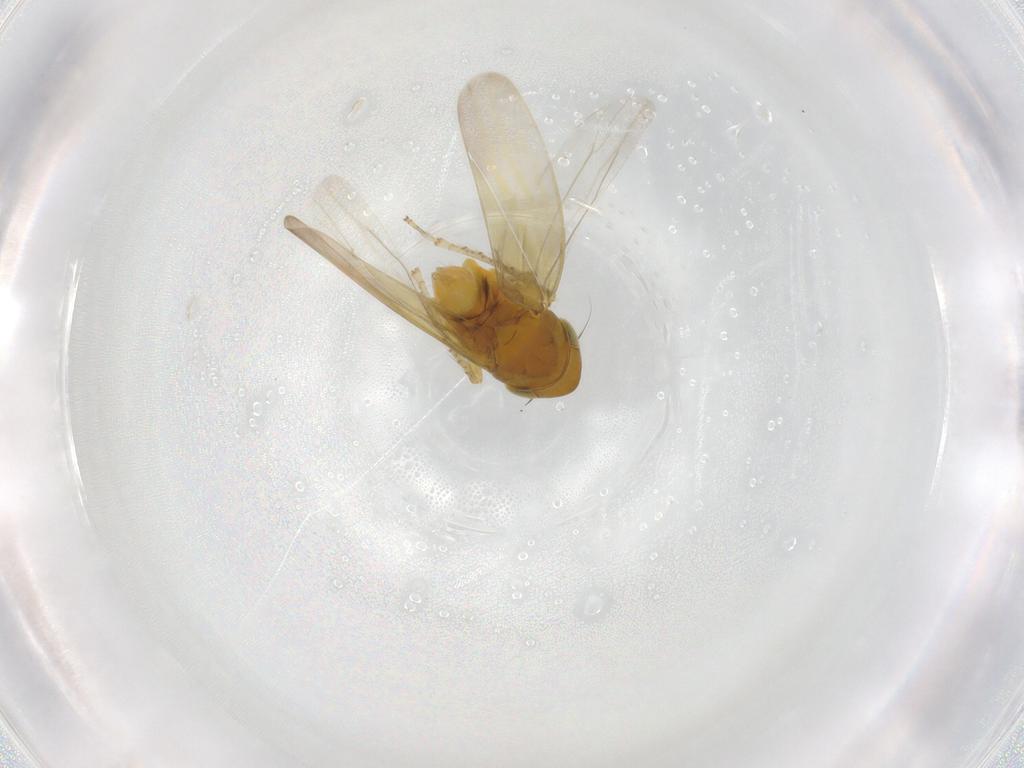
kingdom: Animalia
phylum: Arthropoda
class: Insecta
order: Hemiptera
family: Cicadellidae
